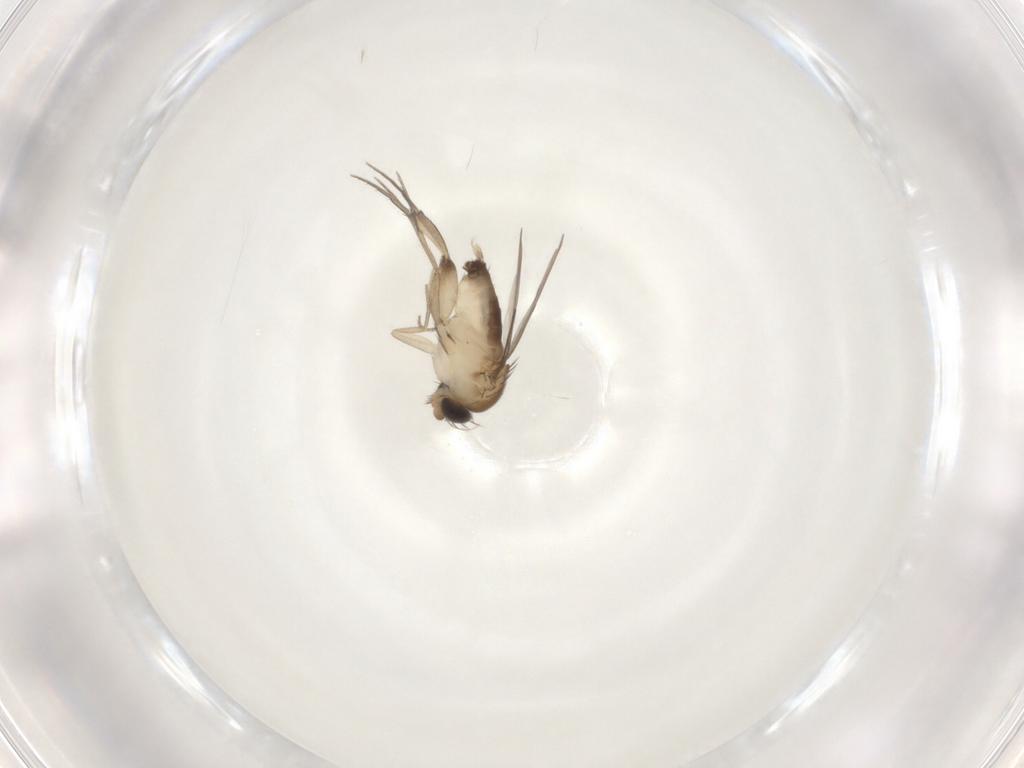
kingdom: Animalia
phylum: Arthropoda
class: Insecta
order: Diptera
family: Phoridae
